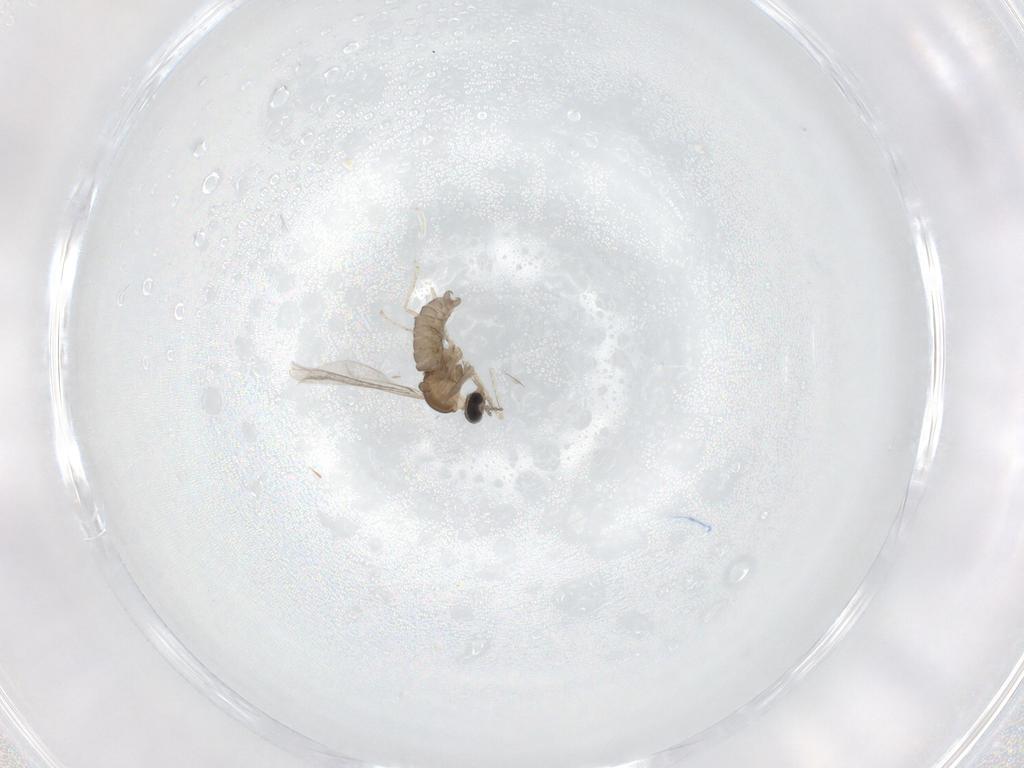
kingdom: Animalia
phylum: Arthropoda
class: Insecta
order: Diptera
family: Cecidomyiidae
